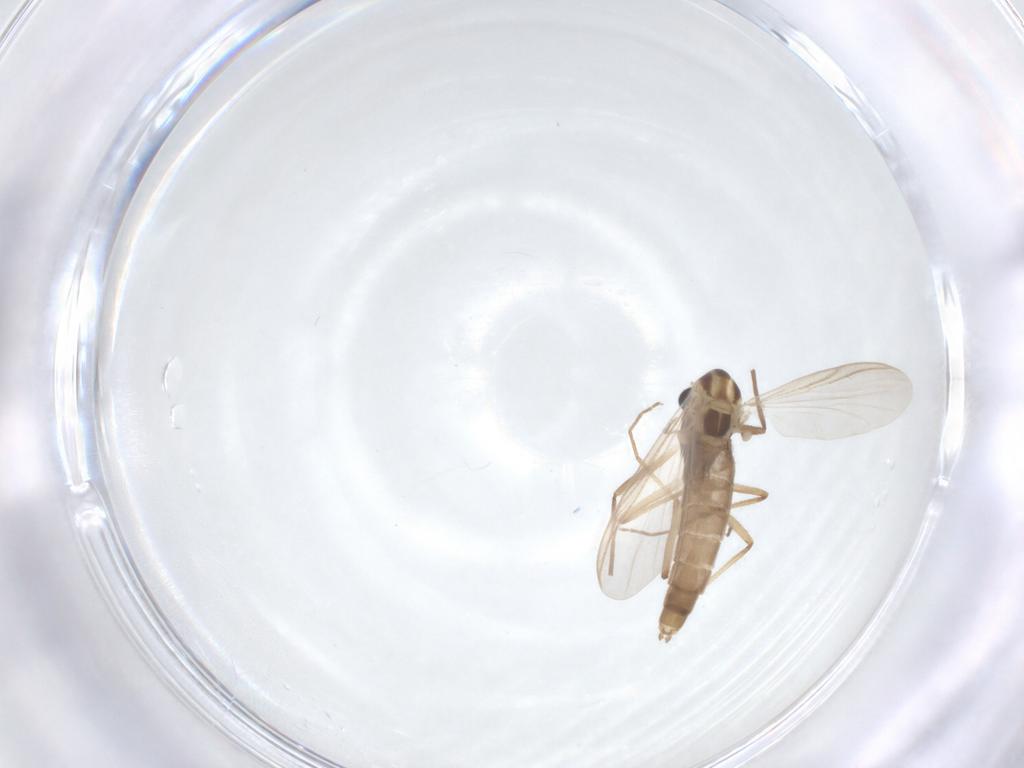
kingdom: Animalia
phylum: Arthropoda
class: Insecta
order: Diptera
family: Chironomidae
